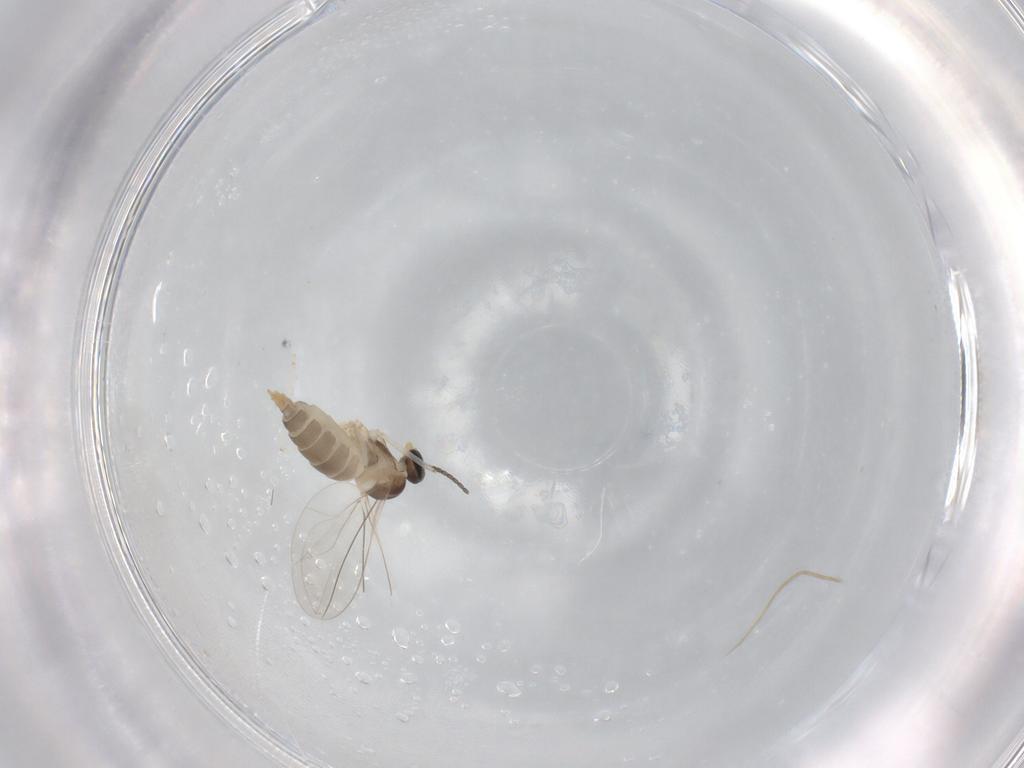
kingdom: Animalia
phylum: Arthropoda
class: Insecta
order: Diptera
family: Cecidomyiidae
